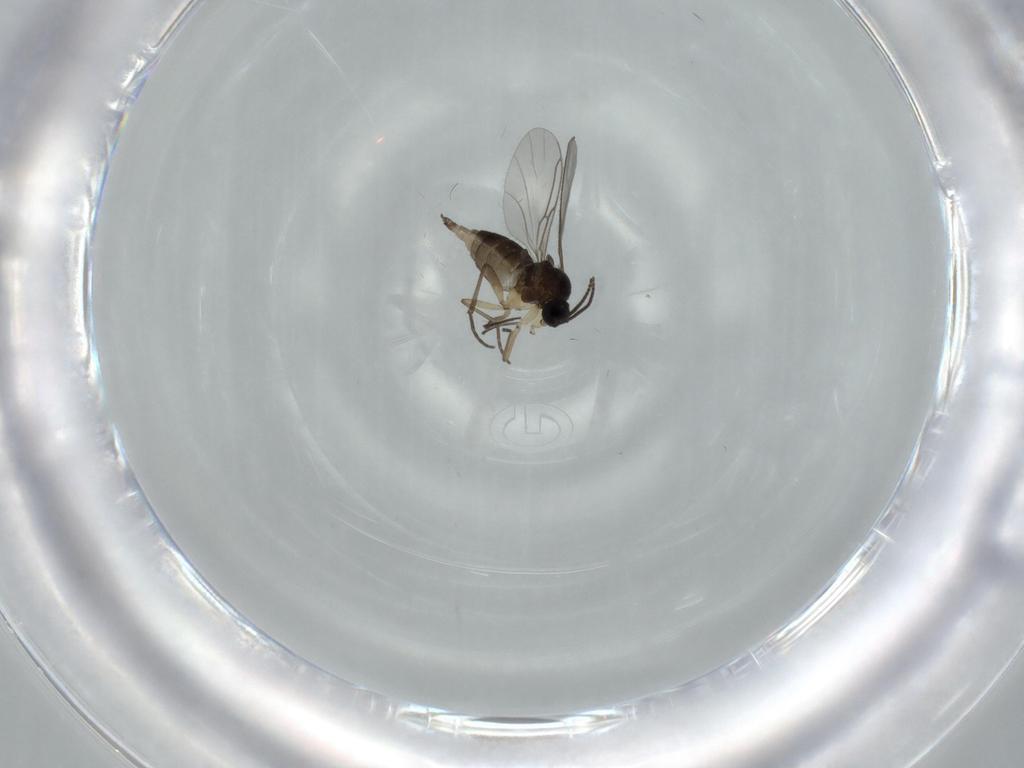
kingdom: Animalia
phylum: Arthropoda
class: Insecta
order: Diptera
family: Sciaridae
